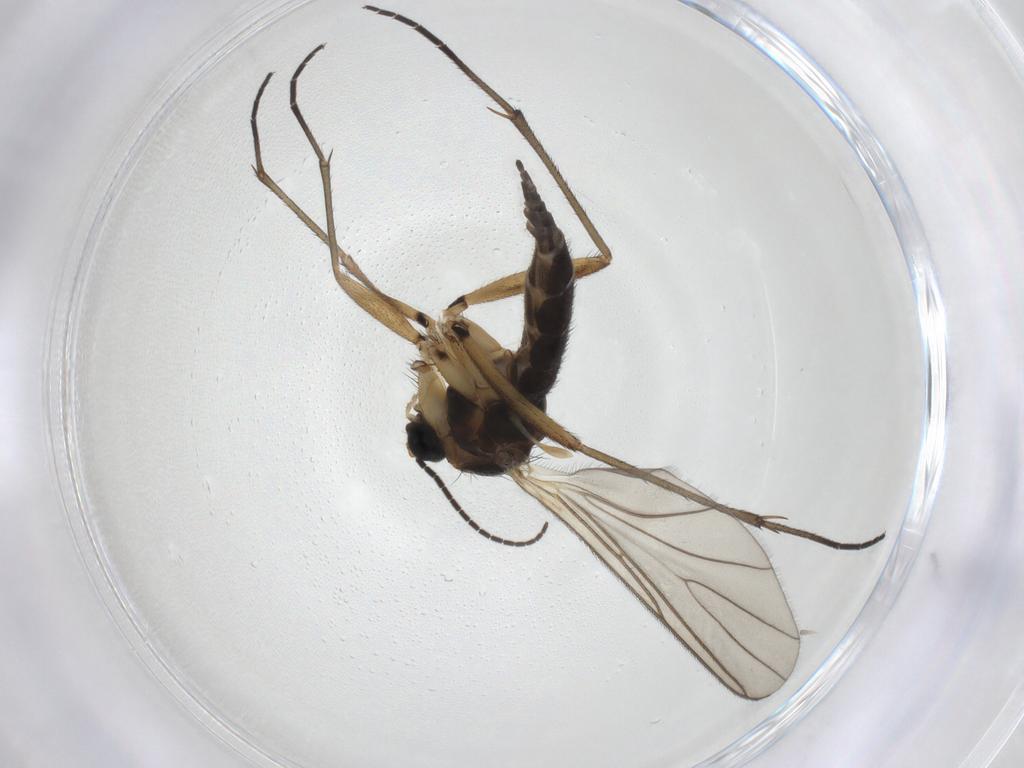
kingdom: Animalia
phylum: Arthropoda
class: Insecta
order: Diptera
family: Sciaridae
